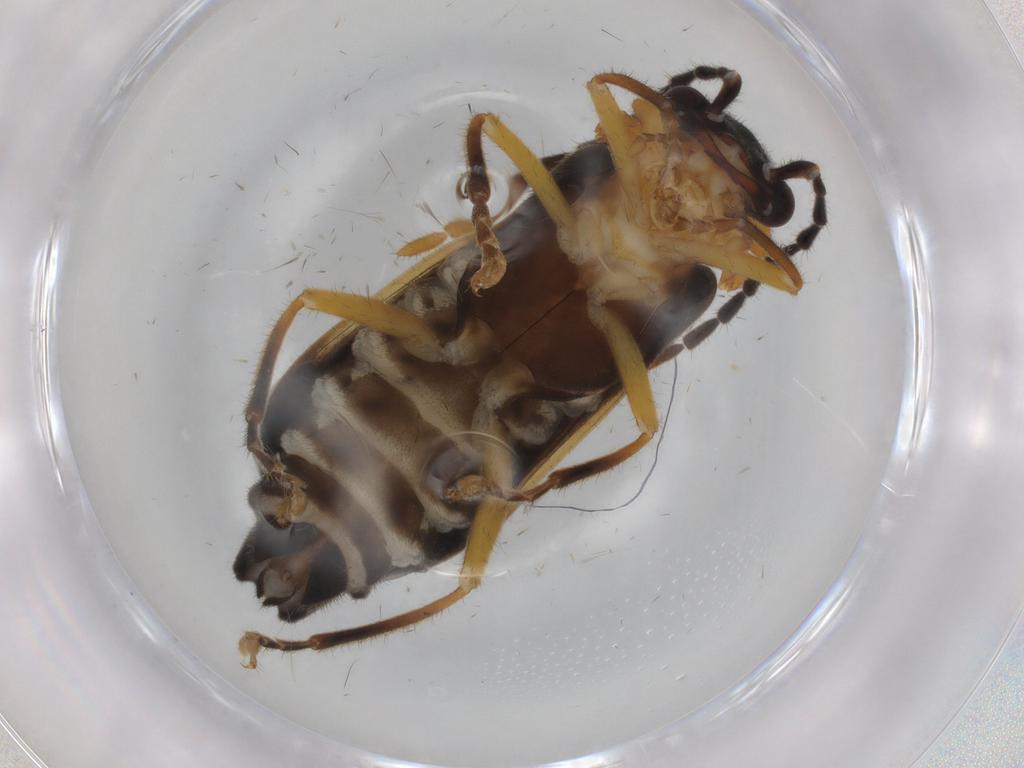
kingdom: Animalia
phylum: Arthropoda
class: Insecta
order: Coleoptera
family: Cantharidae
